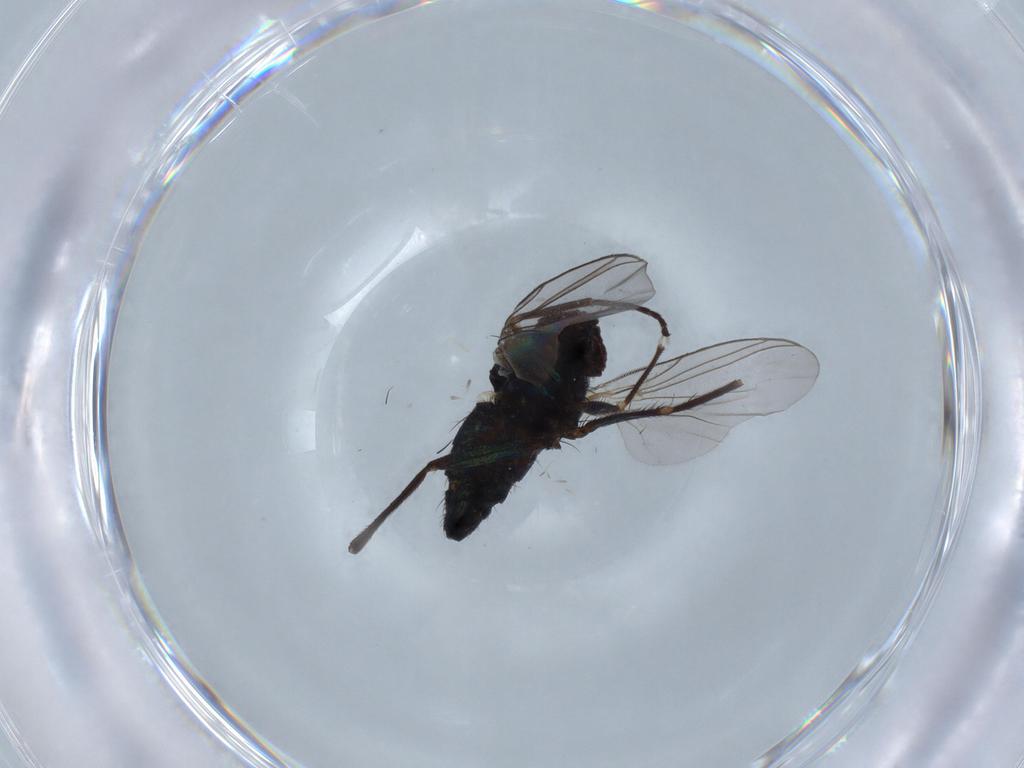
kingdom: Animalia
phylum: Arthropoda
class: Insecta
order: Diptera
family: Dolichopodidae
